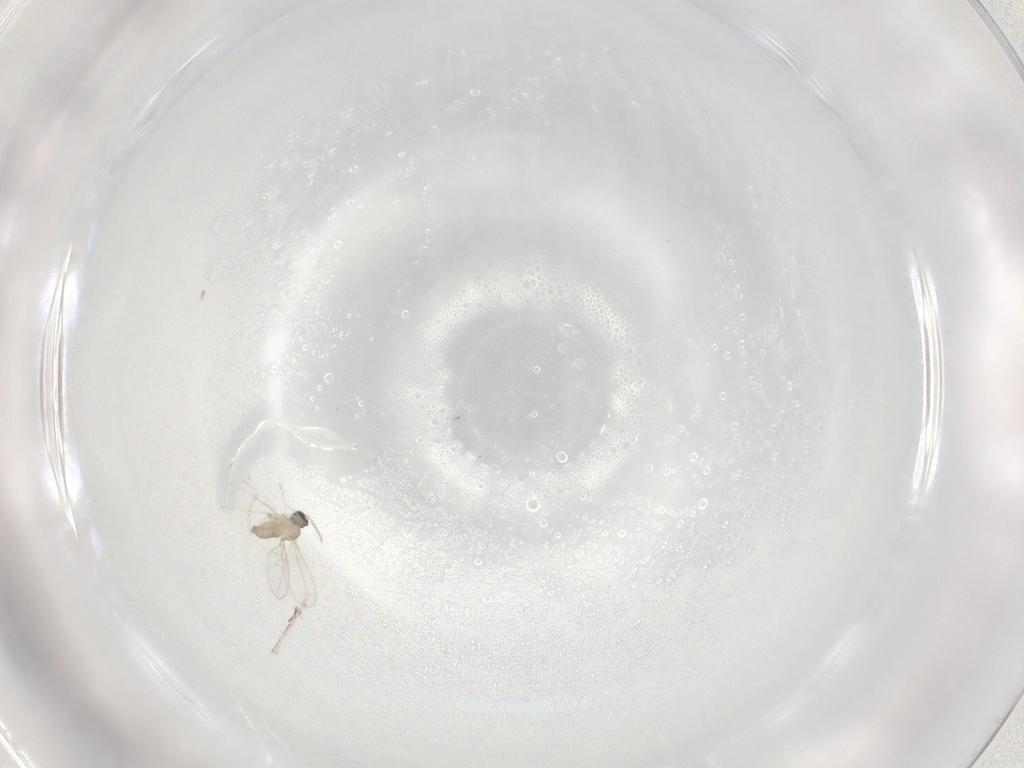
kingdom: Animalia
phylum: Arthropoda
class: Insecta
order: Diptera
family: Cecidomyiidae
